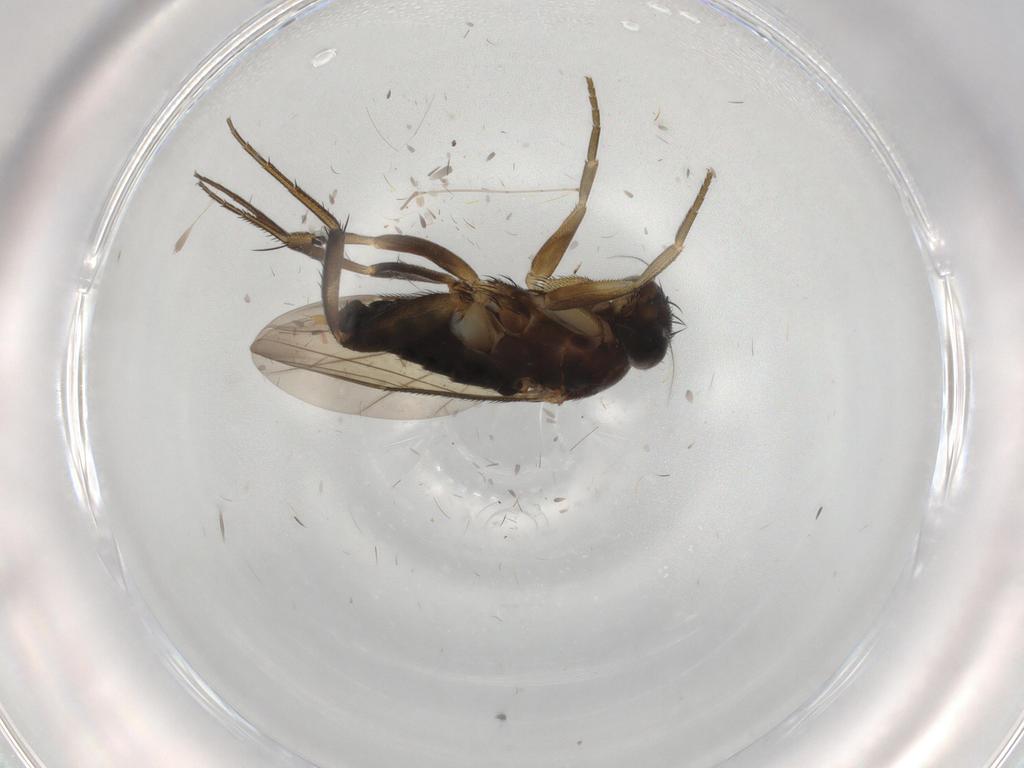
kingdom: Animalia
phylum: Arthropoda
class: Insecta
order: Diptera
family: Phoridae
